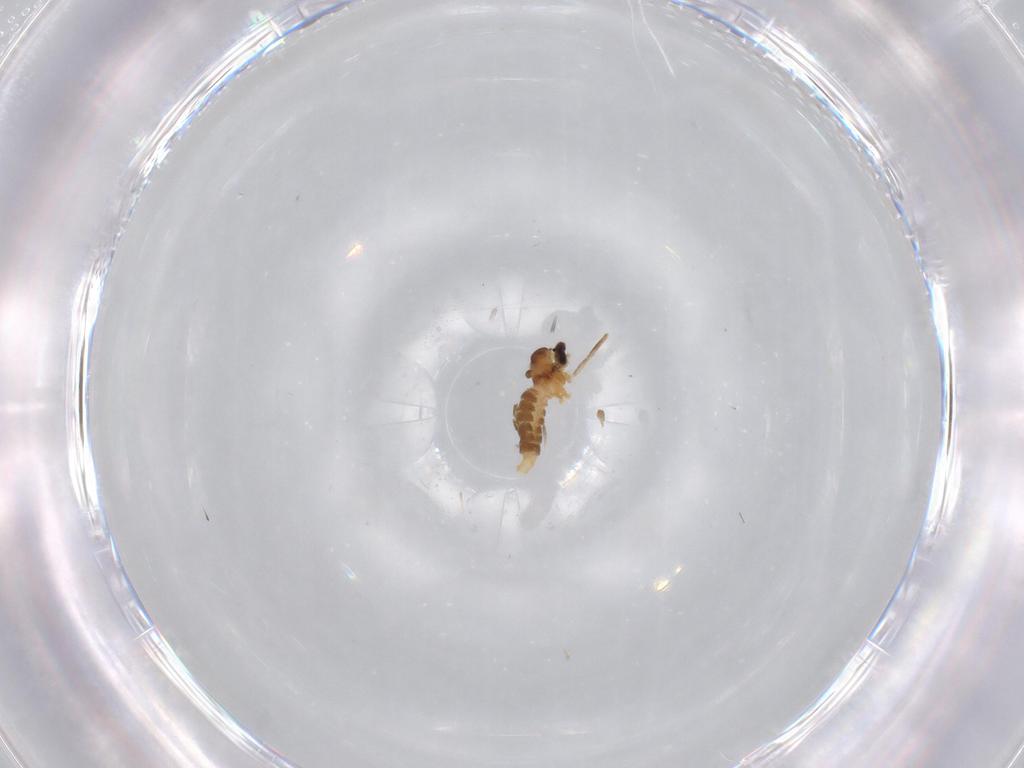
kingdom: Animalia
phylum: Arthropoda
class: Insecta
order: Diptera
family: Cecidomyiidae
